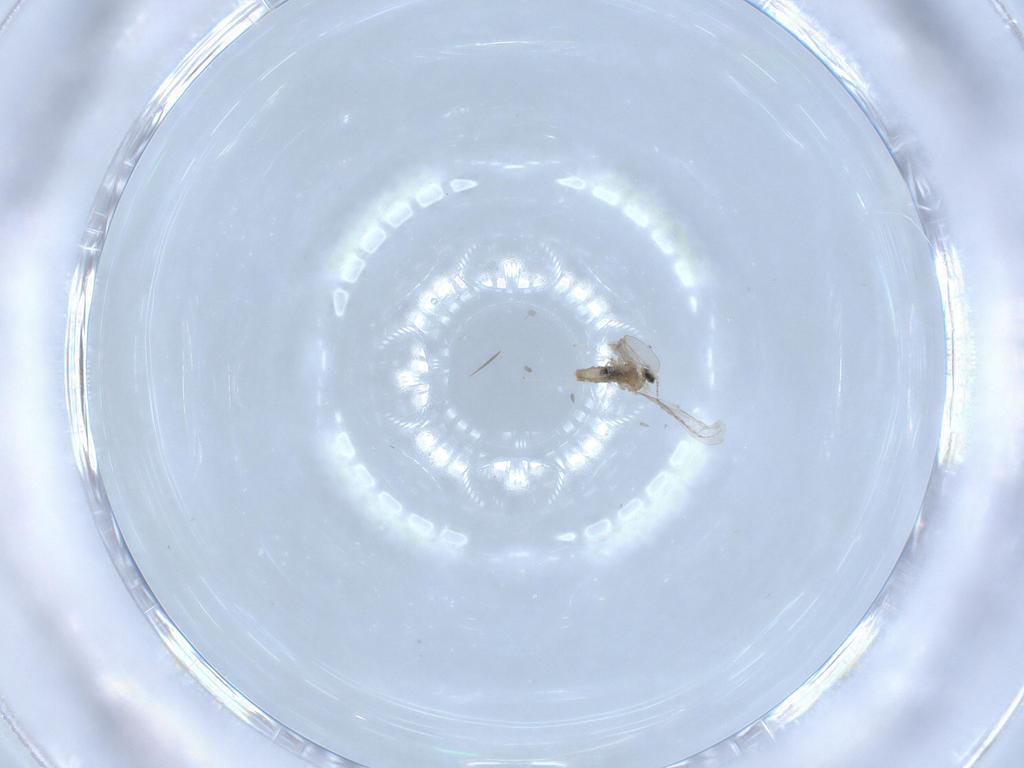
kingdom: Animalia
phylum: Arthropoda
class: Insecta
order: Diptera
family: Cecidomyiidae
